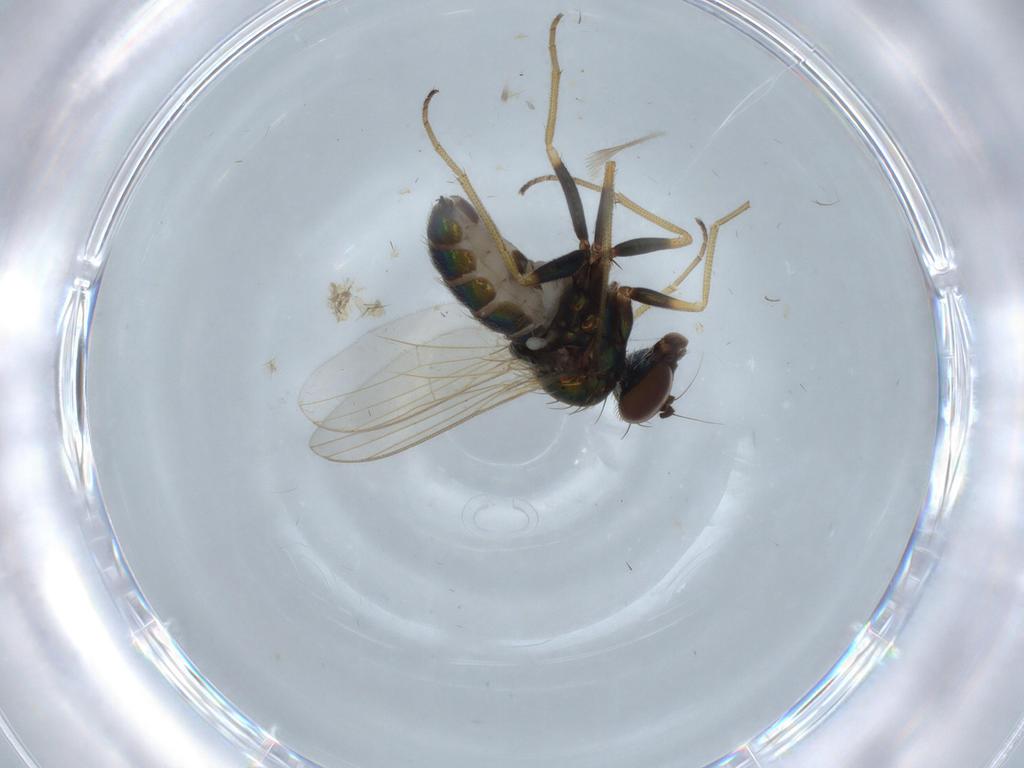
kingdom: Animalia
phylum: Arthropoda
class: Insecta
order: Diptera
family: Dolichopodidae
